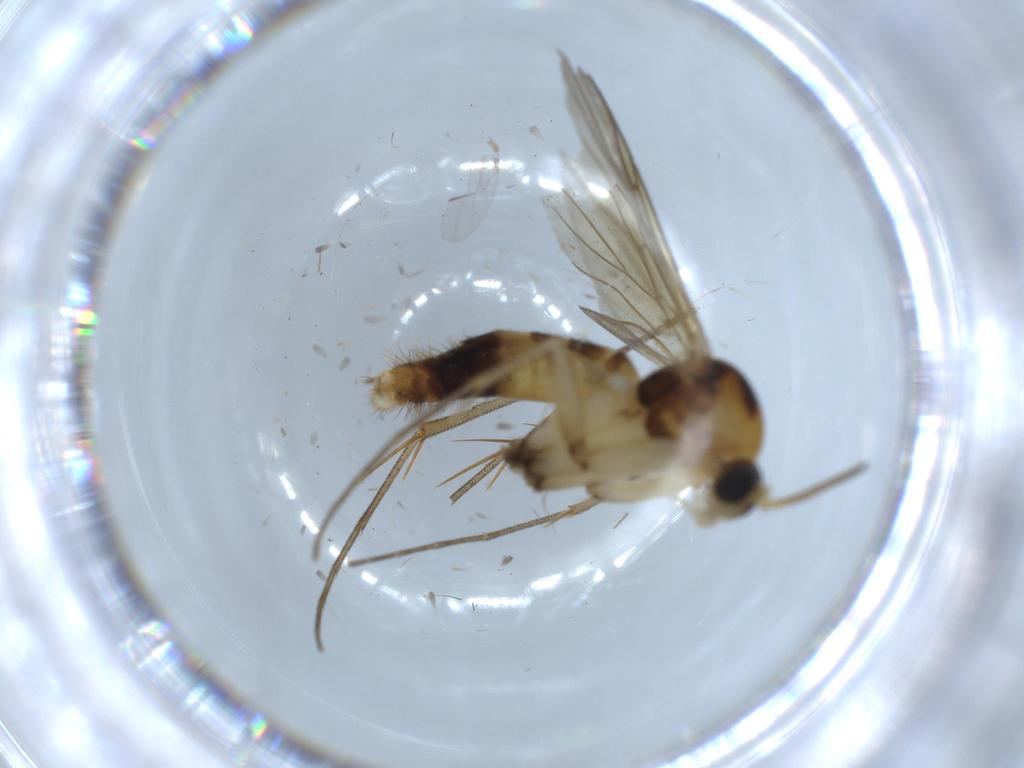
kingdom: Animalia
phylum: Arthropoda
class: Insecta
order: Diptera
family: Mycetophilidae
